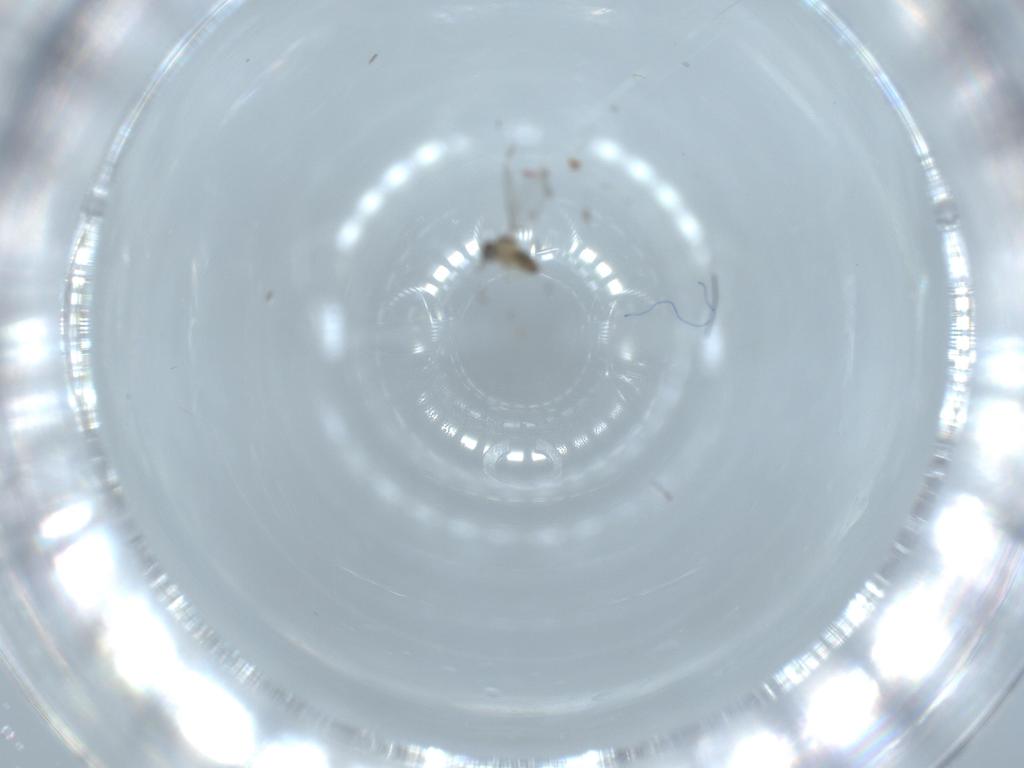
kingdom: Animalia
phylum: Arthropoda
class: Insecta
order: Diptera
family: Cecidomyiidae
